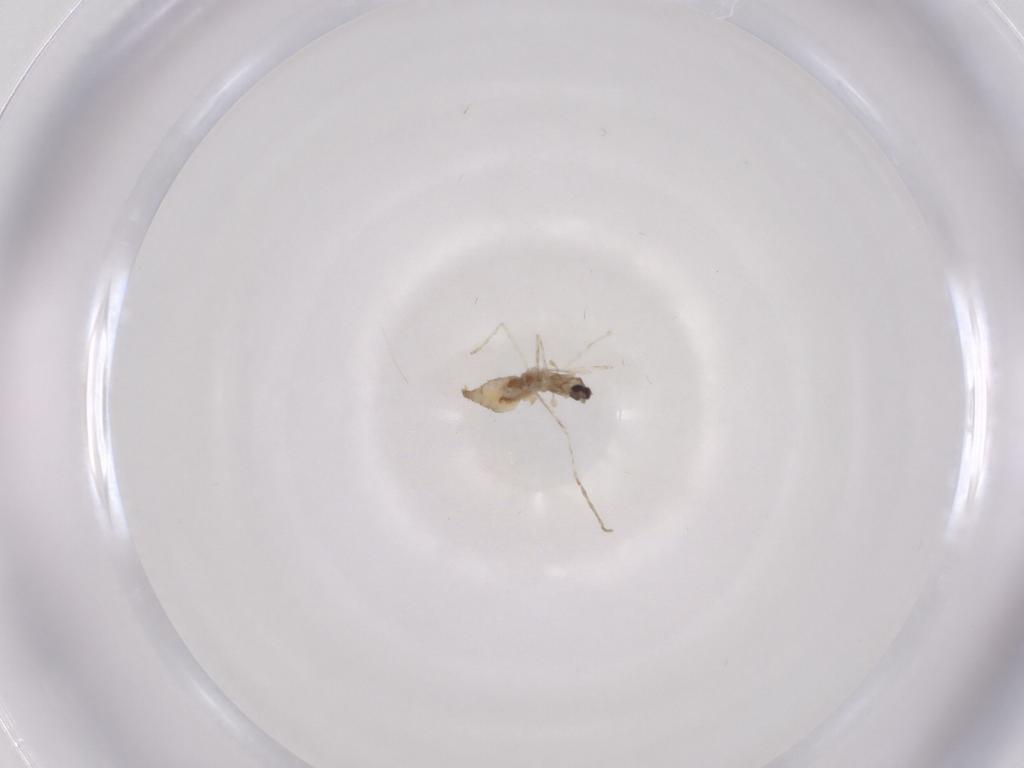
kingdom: Animalia
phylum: Arthropoda
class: Insecta
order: Diptera
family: Cecidomyiidae
